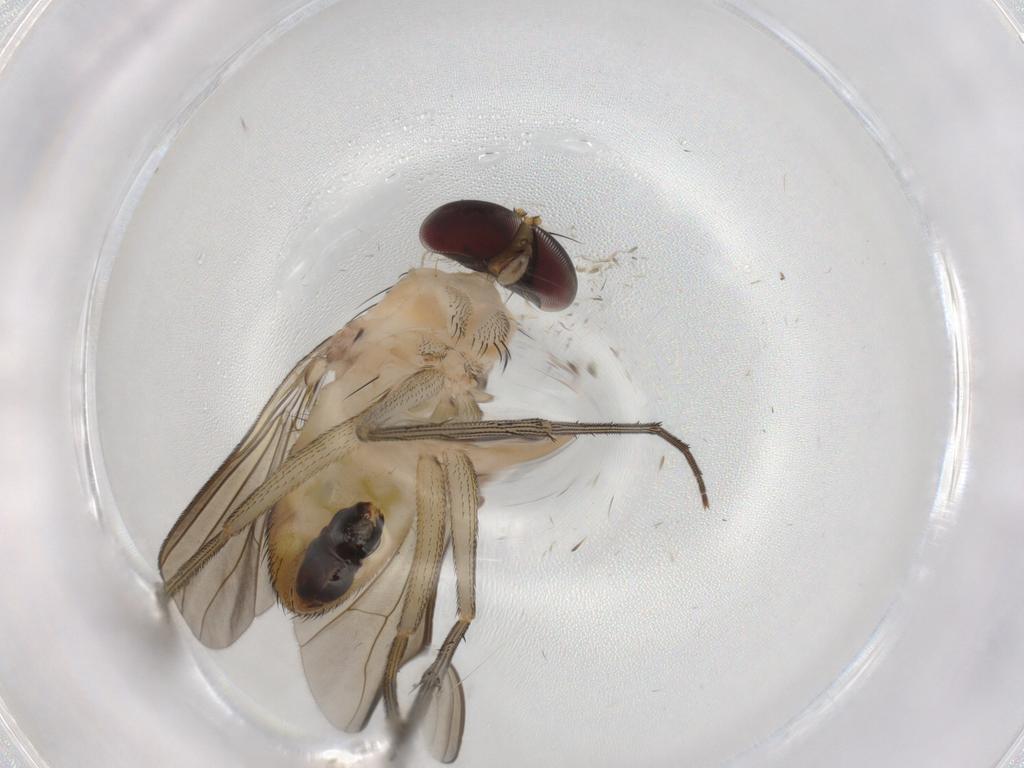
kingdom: Animalia
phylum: Arthropoda
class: Insecta
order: Diptera
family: Dolichopodidae
